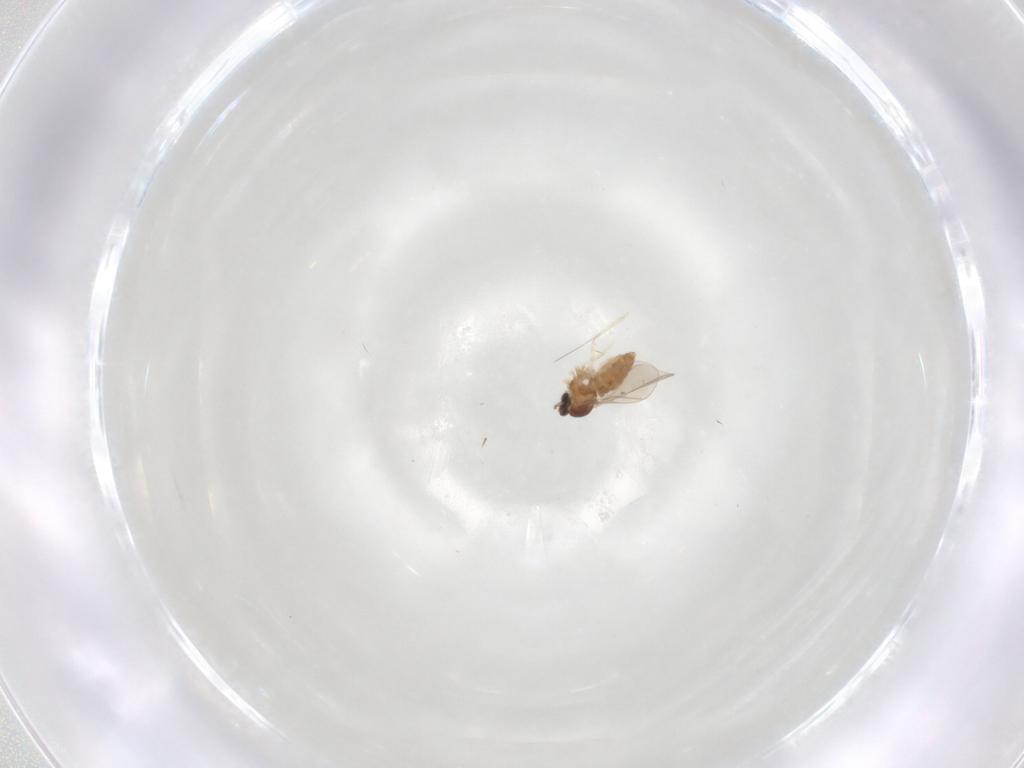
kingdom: Animalia
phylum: Arthropoda
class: Insecta
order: Diptera
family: Cecidomyiidae
